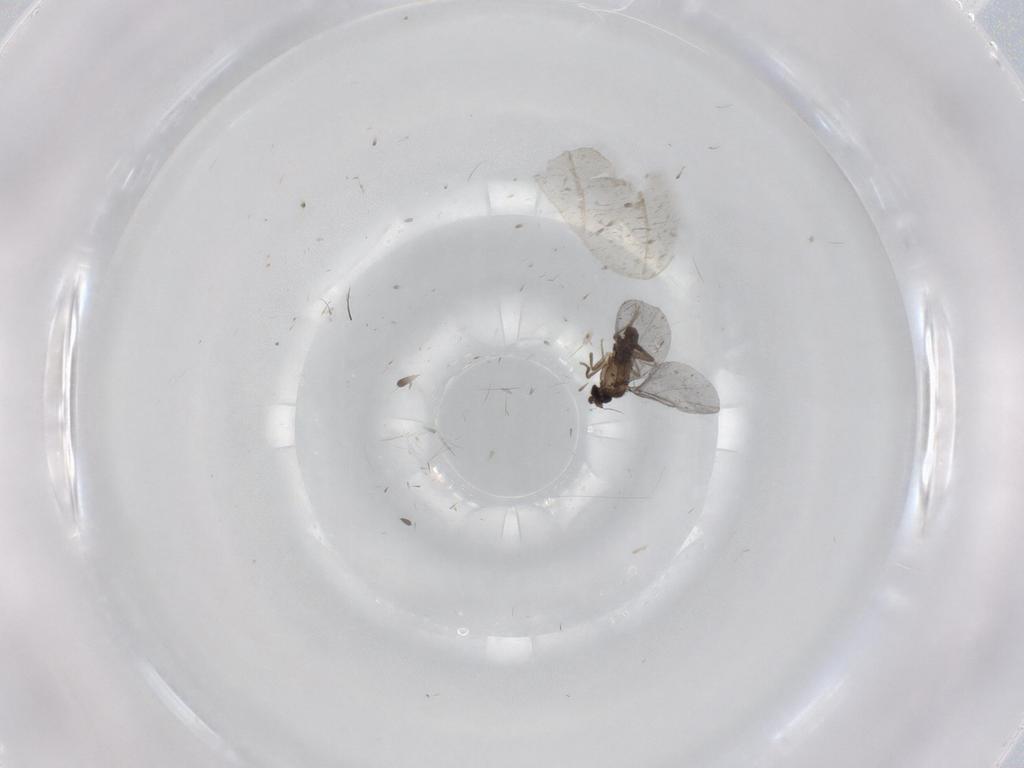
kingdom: Animalia
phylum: Arthropoda
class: Insecta
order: Diptera
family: Cecidomyiidae
